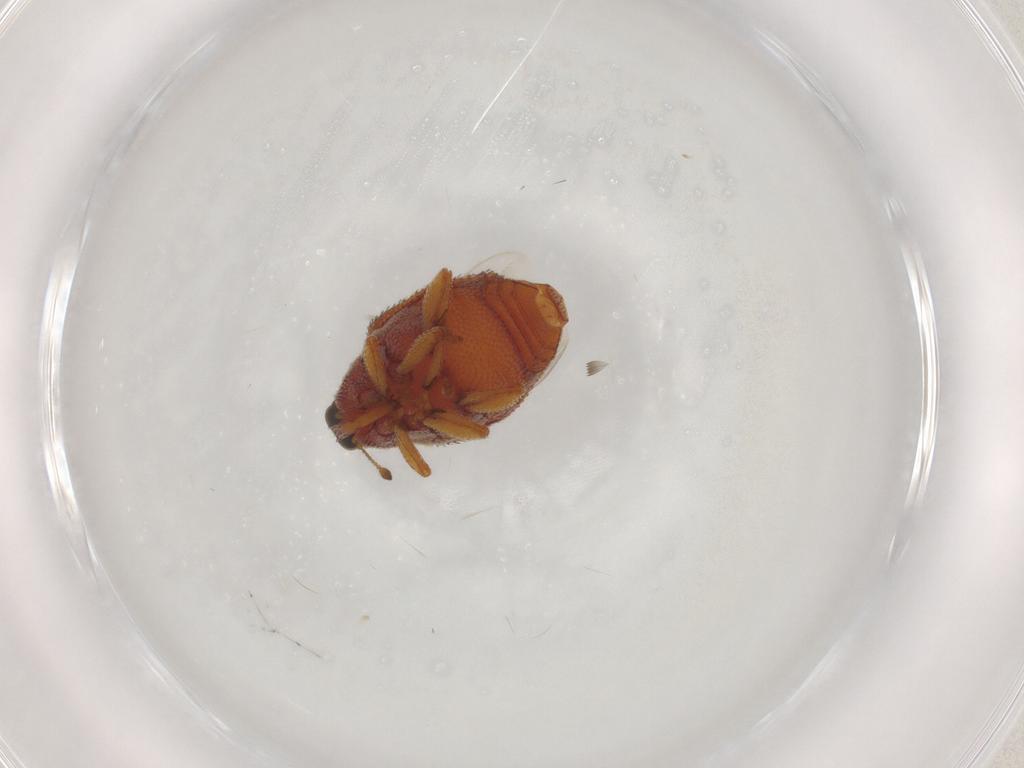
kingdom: Animalia
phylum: Arthropoda
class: Insecta
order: Coleoptera
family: Curculionidae
